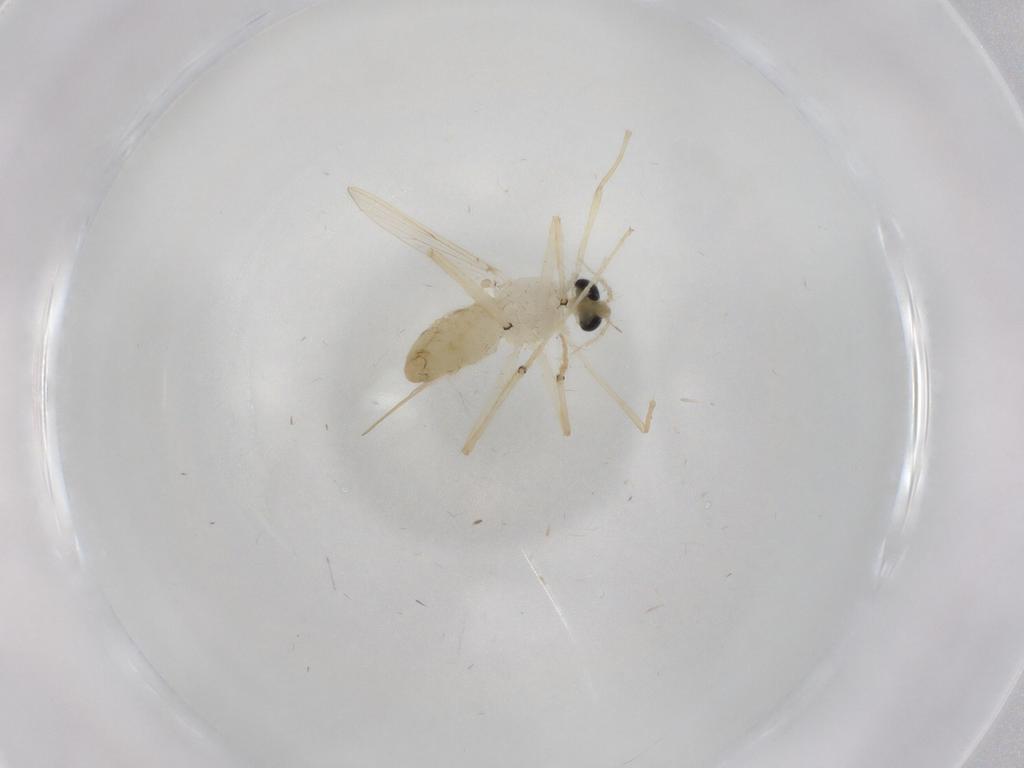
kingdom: Animalia
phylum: Arthropoda
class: Insecta
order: Diptera
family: Chironomidae
